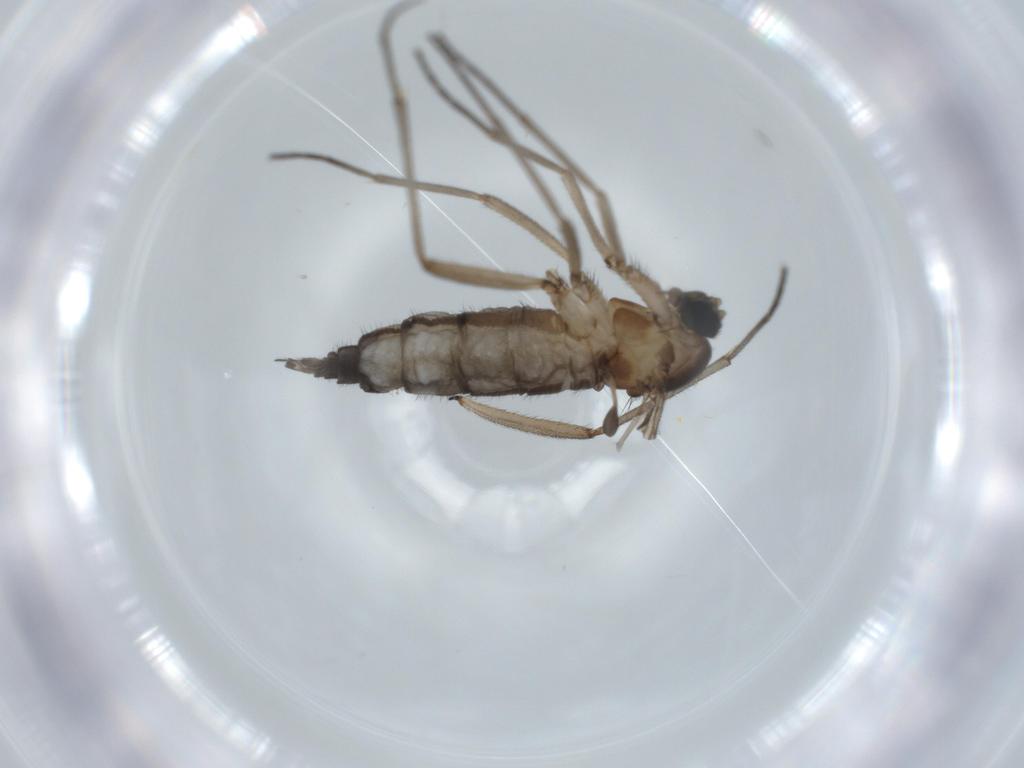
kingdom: Animalia
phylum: Arthropoda
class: Insecta
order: Diptera
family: Sciaridae
